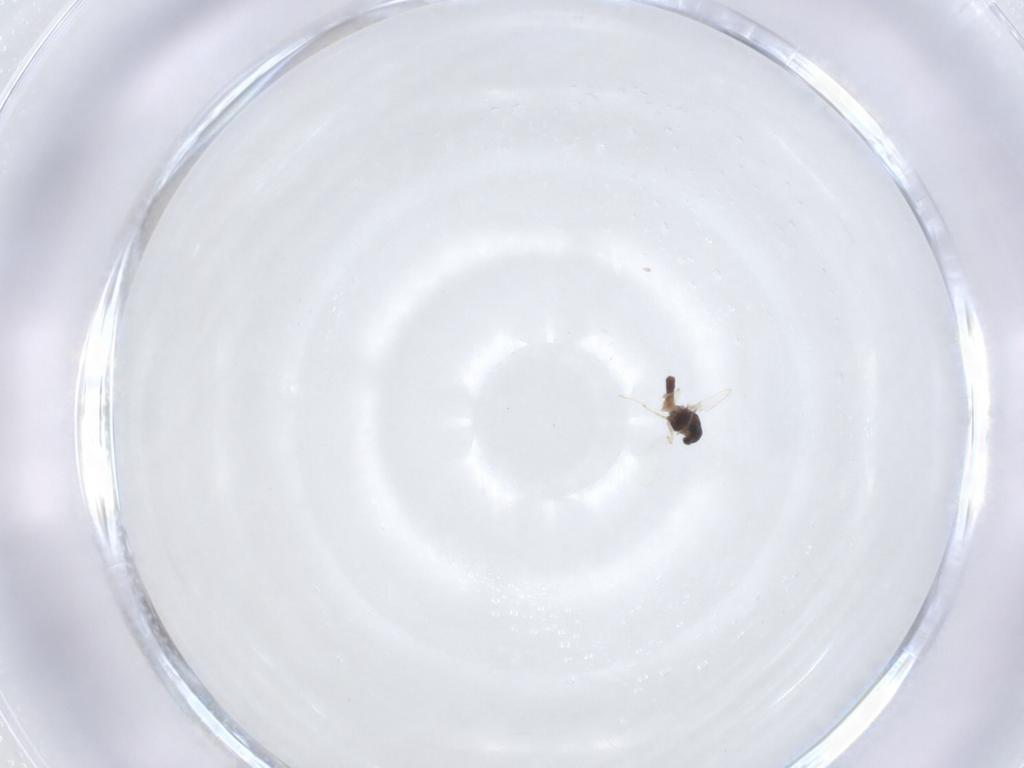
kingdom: Animalia
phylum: Arthropoda
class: Insecta
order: Diptera
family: Chironomidae
